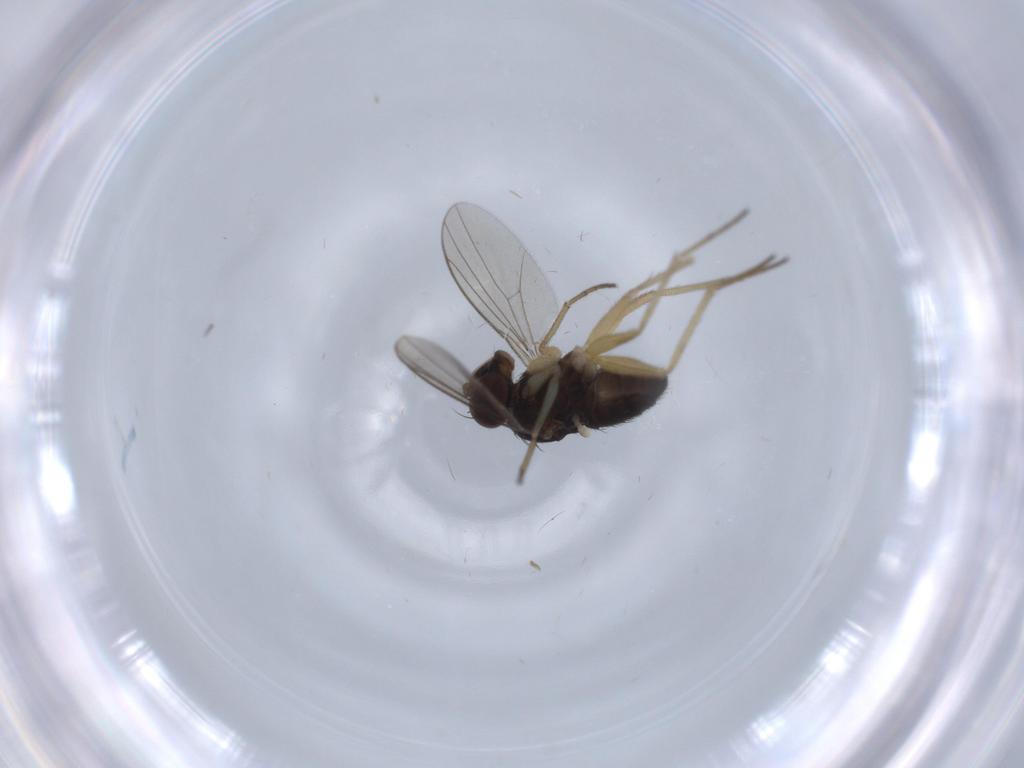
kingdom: Animalia
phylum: Arthropoda
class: Insecta
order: Diptera
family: Dolichopodidae
